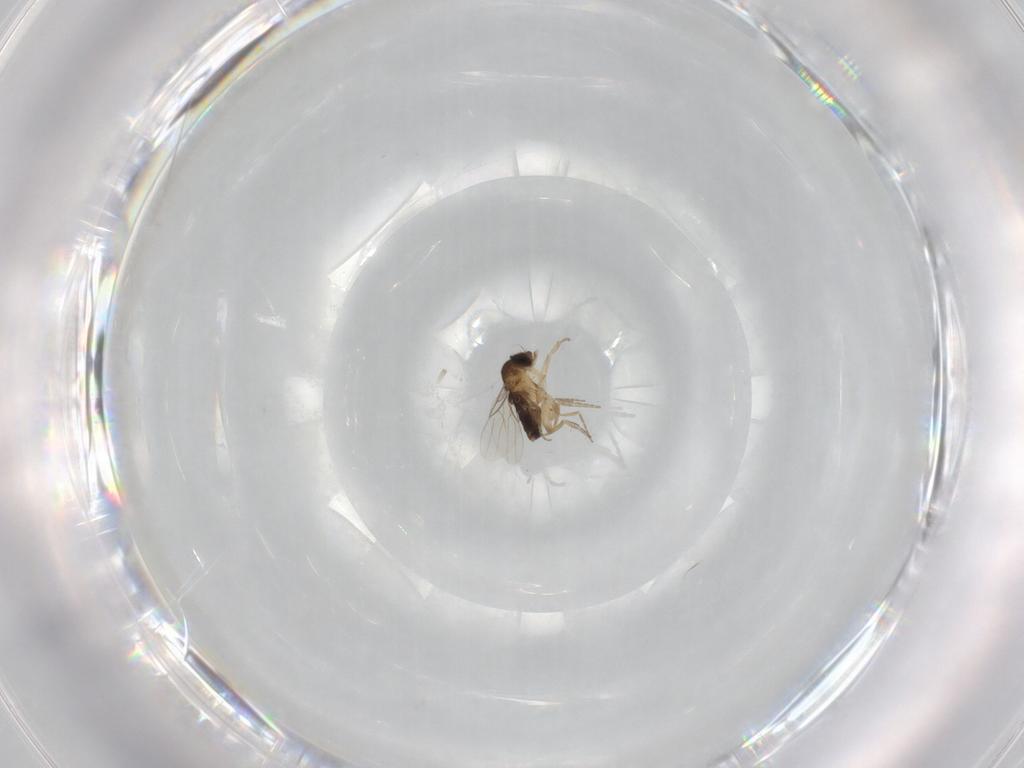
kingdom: Animalia
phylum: Arthropoda
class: Insecta
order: Diptera
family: Phoridae
